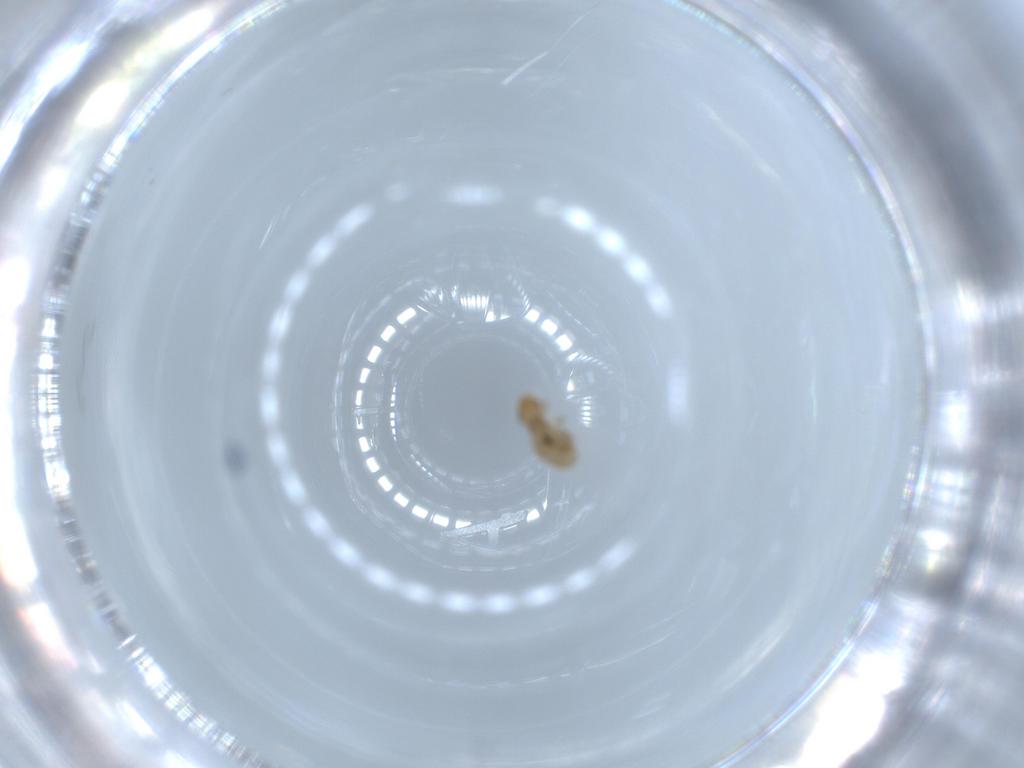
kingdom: Animalia
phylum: Arthropoda
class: Insecta
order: Psocodea
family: Liposcelididae
